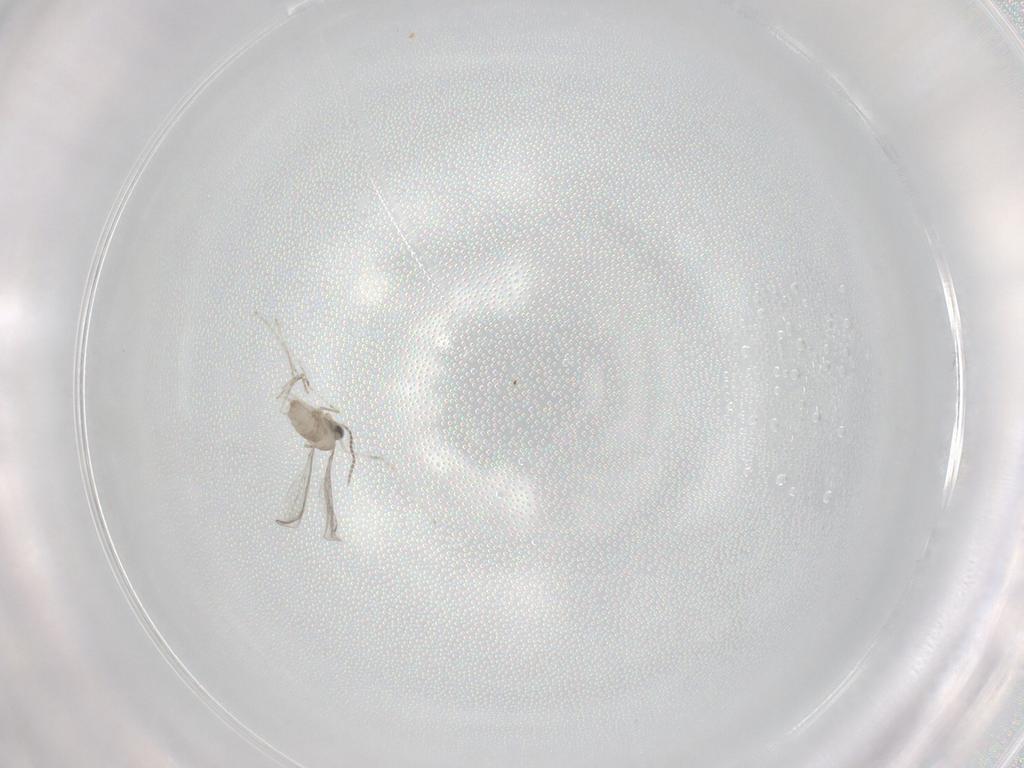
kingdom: Animalia
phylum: Arthropoda
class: Insecta
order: Diptera
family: Cecidomyiidae
